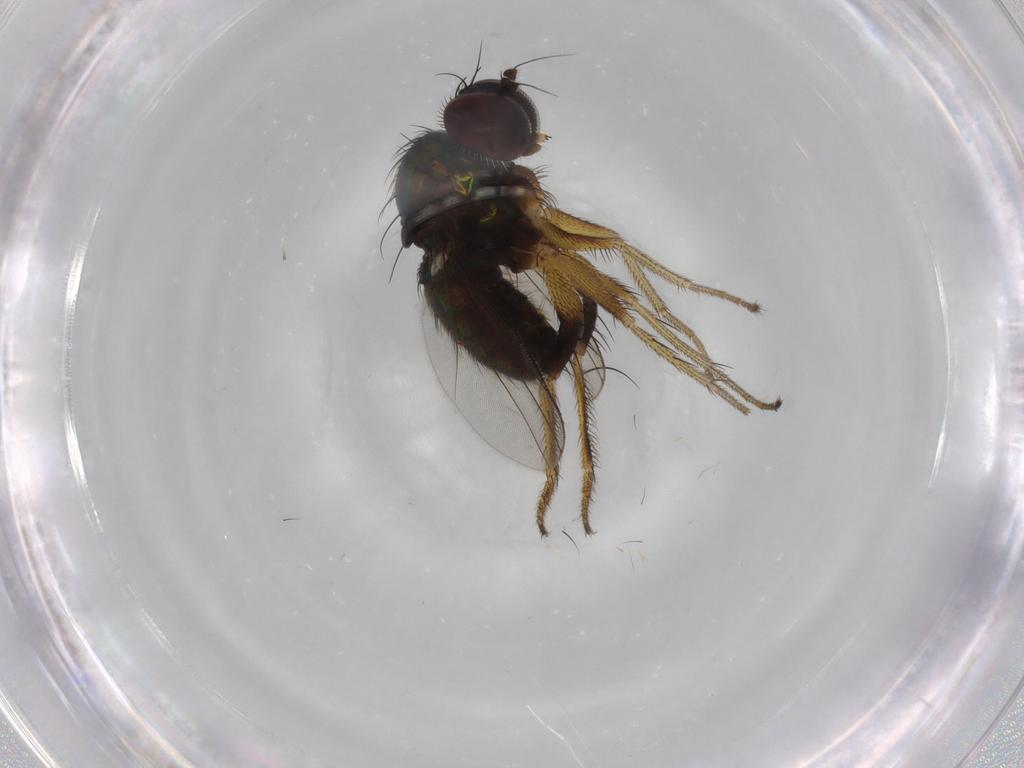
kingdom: Animalia
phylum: Arthropoda
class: Insecta
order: Diptera
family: Dolichopodidae
